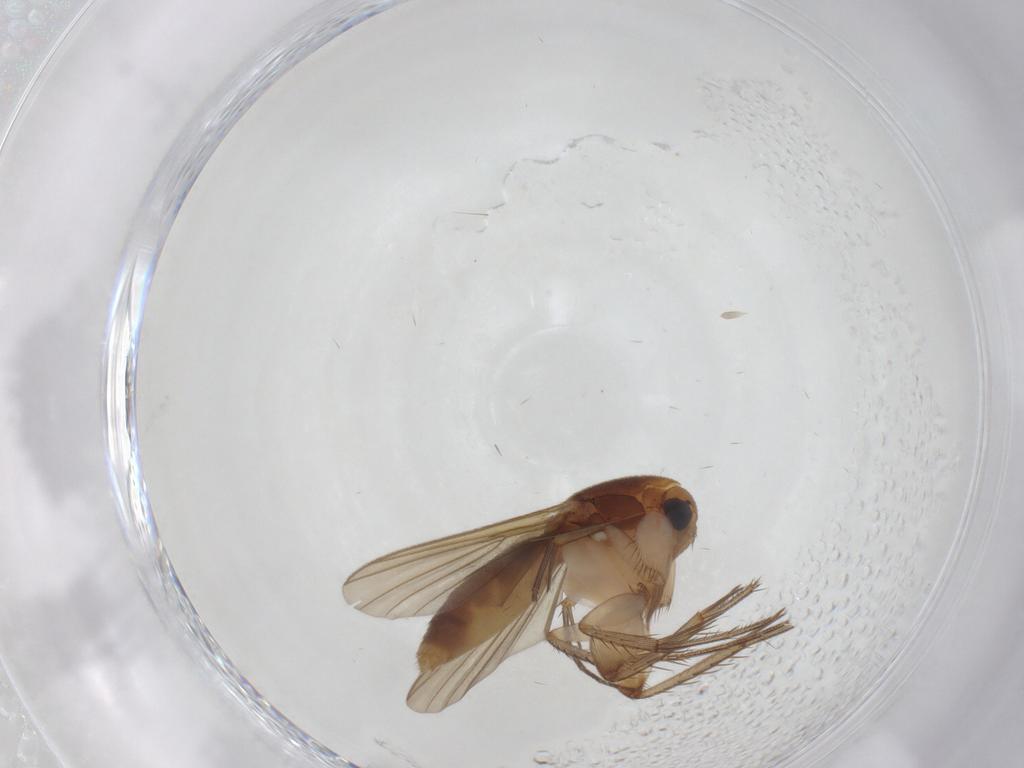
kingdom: Animalia
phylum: Arthropoda
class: Insecta
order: Diptera
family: Mycetophilidae
